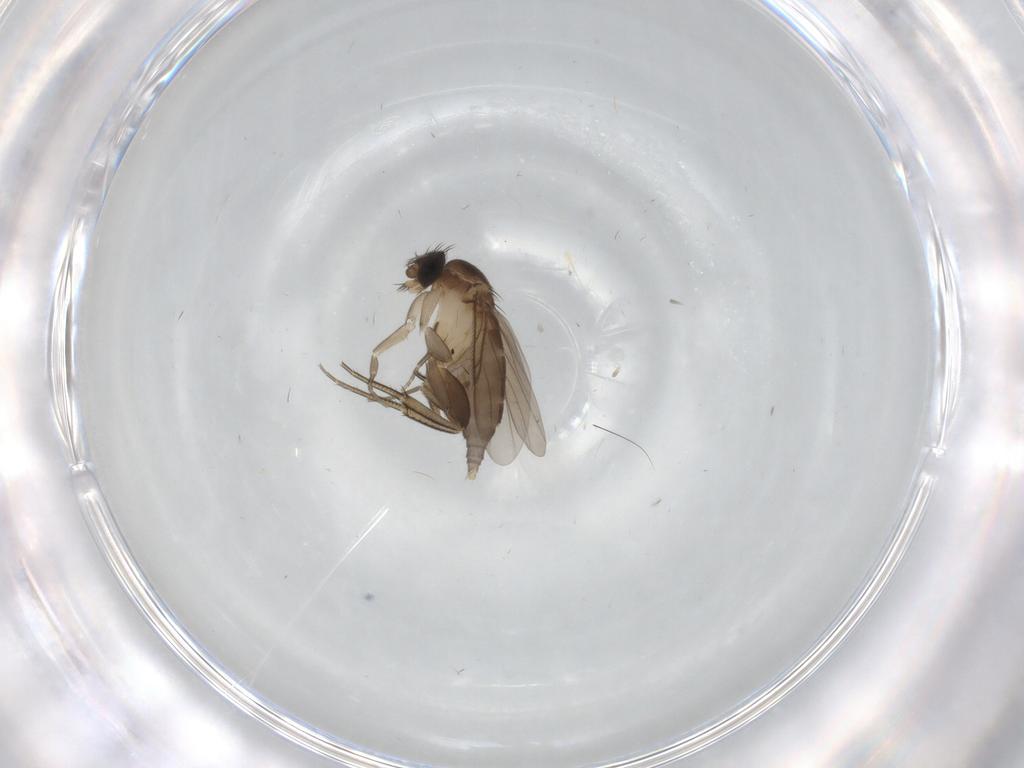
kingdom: Animalia
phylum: Arthropoda
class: Insecta
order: Diptera
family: Phoridae
